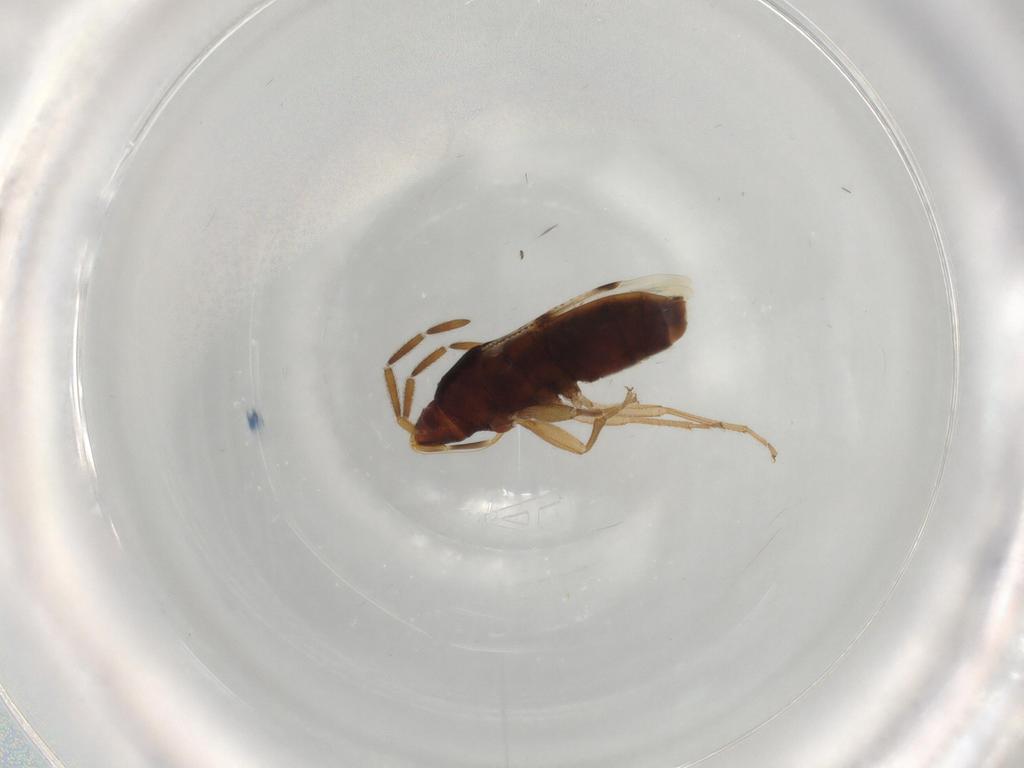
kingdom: Animalia
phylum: Arthropoda
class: Insecta
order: Hemiptera
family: Rhyparochromidae
